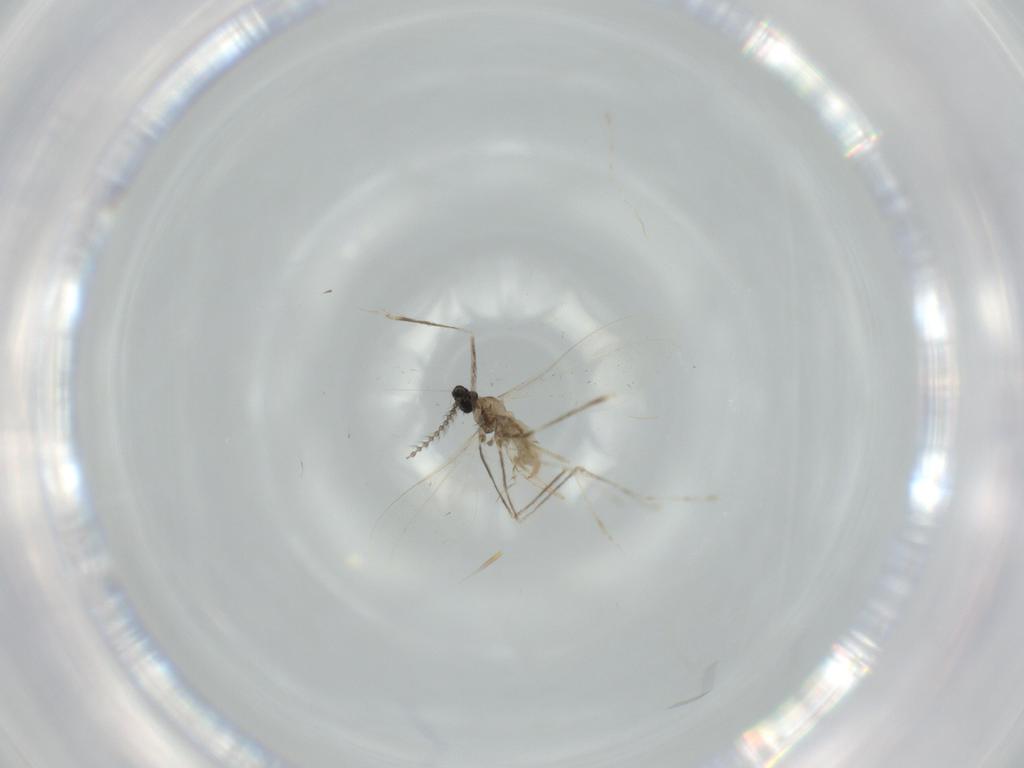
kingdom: Animalia
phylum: Arthropoda
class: Insecta
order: Diptera
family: Cecidomyiidae
